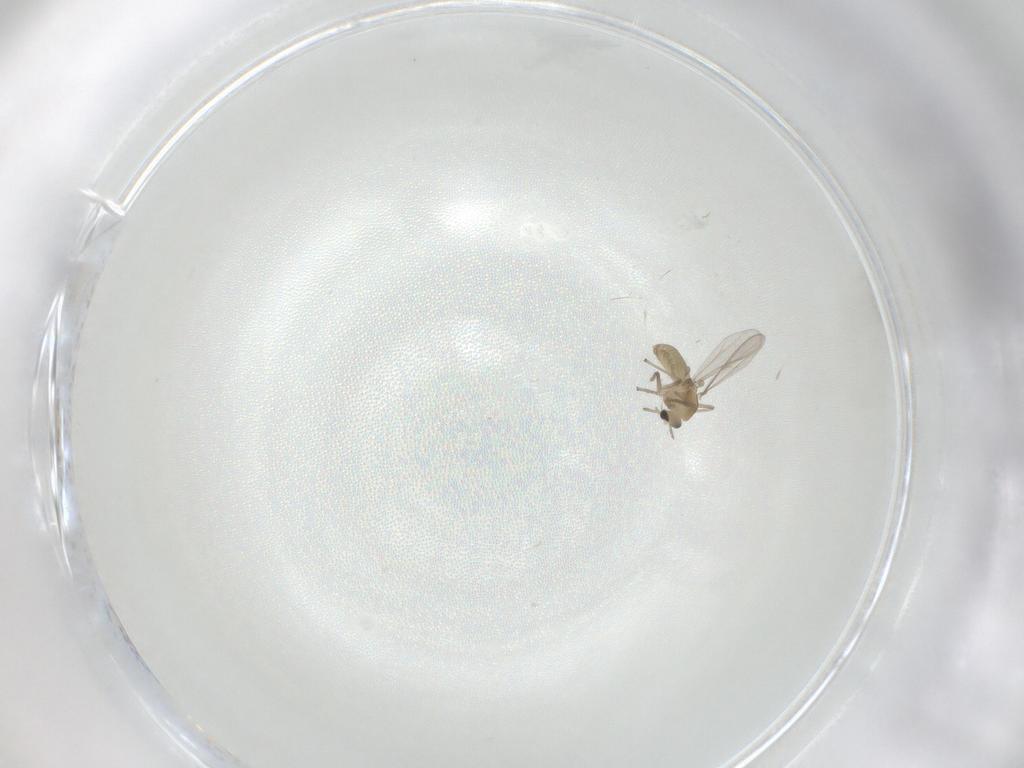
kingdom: Animalia
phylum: Arthropoda
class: Insecta
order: Diptera
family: Chironomidae
